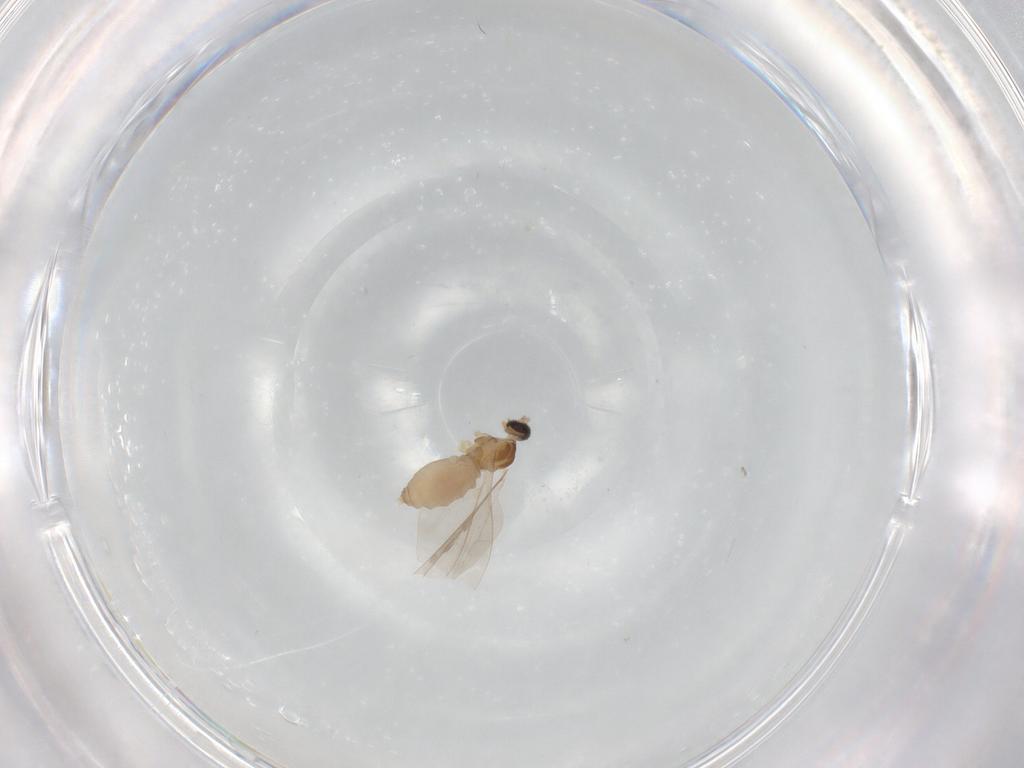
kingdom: Animalia
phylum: Arthropoda
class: Insecta
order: Diptera
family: Cecidomyiidae
